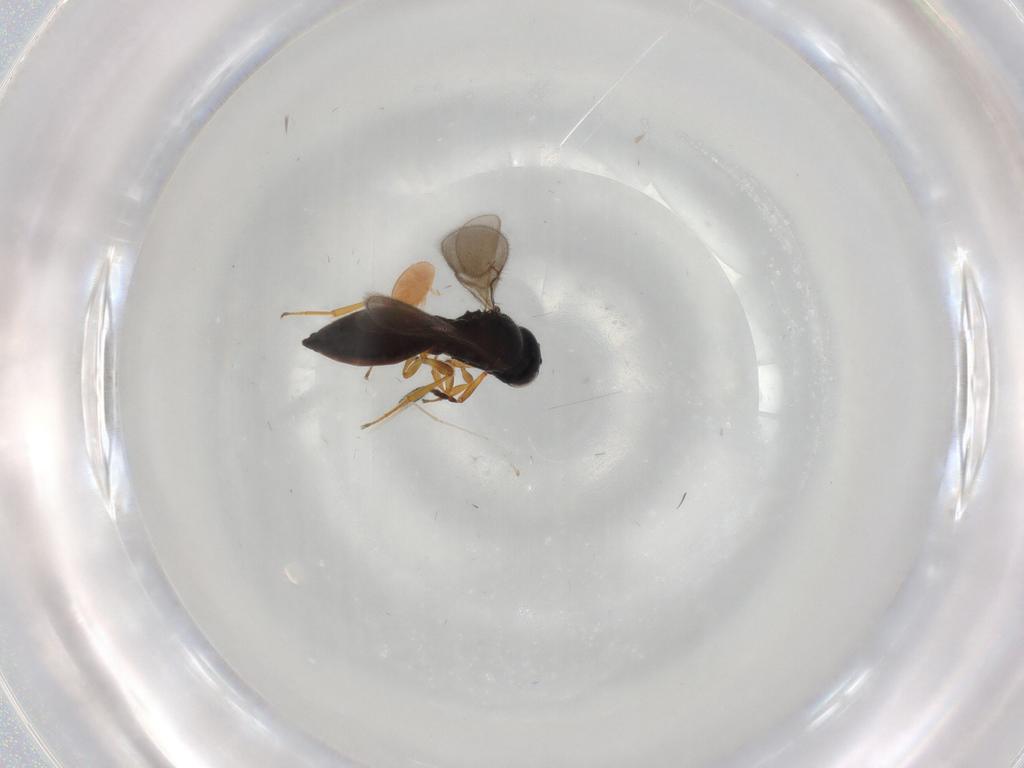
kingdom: Animalia
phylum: Arthropoda
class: Insecta
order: Hymenoptera
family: Scelionidae
